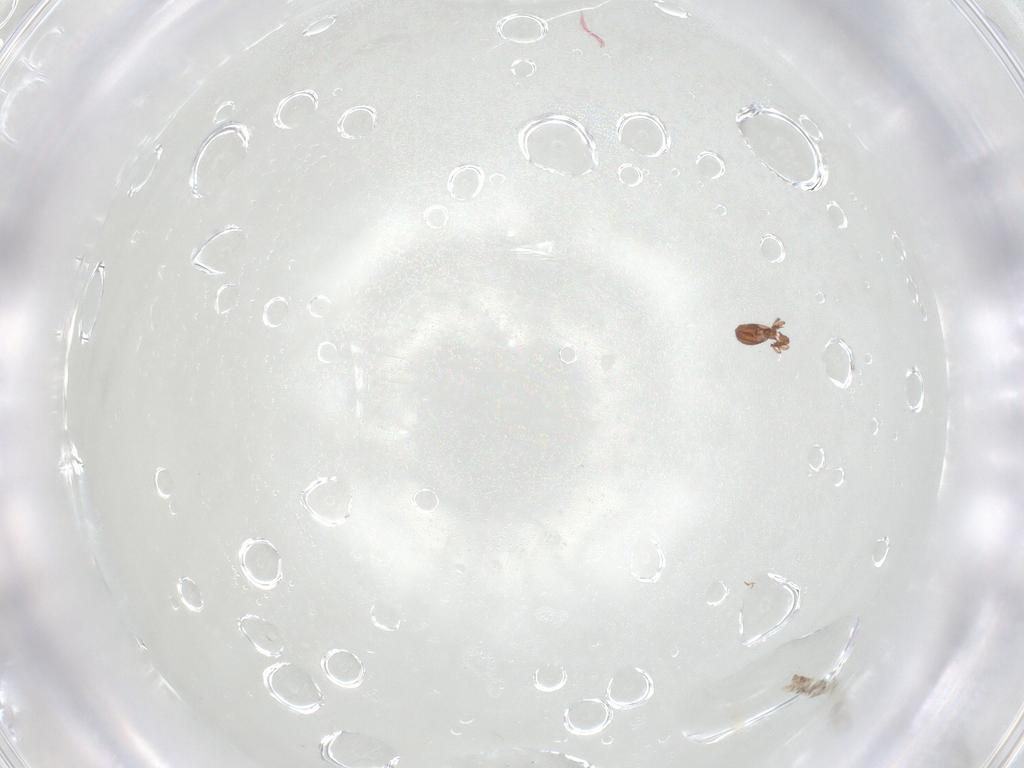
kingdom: Animalia
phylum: Arthropoda
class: Arachnida
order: Sarcoptiformes
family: Oribatulidae
